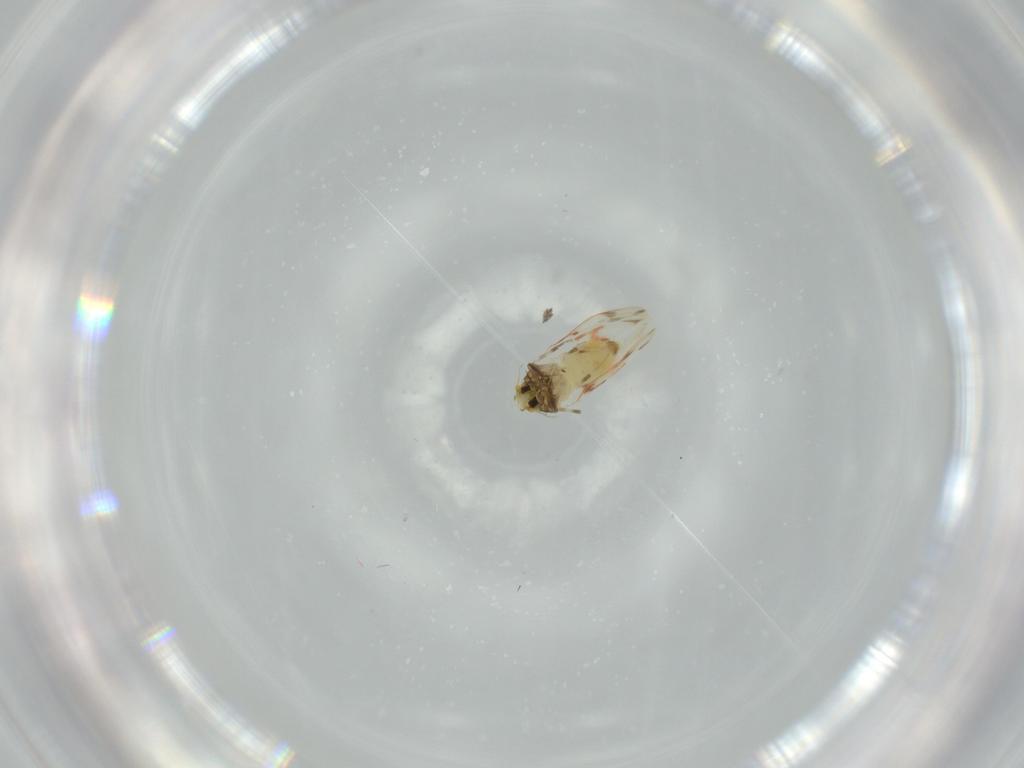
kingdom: Animalia
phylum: Arthropoda
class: Insecta
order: Hemiptera
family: Aleyrodidae
